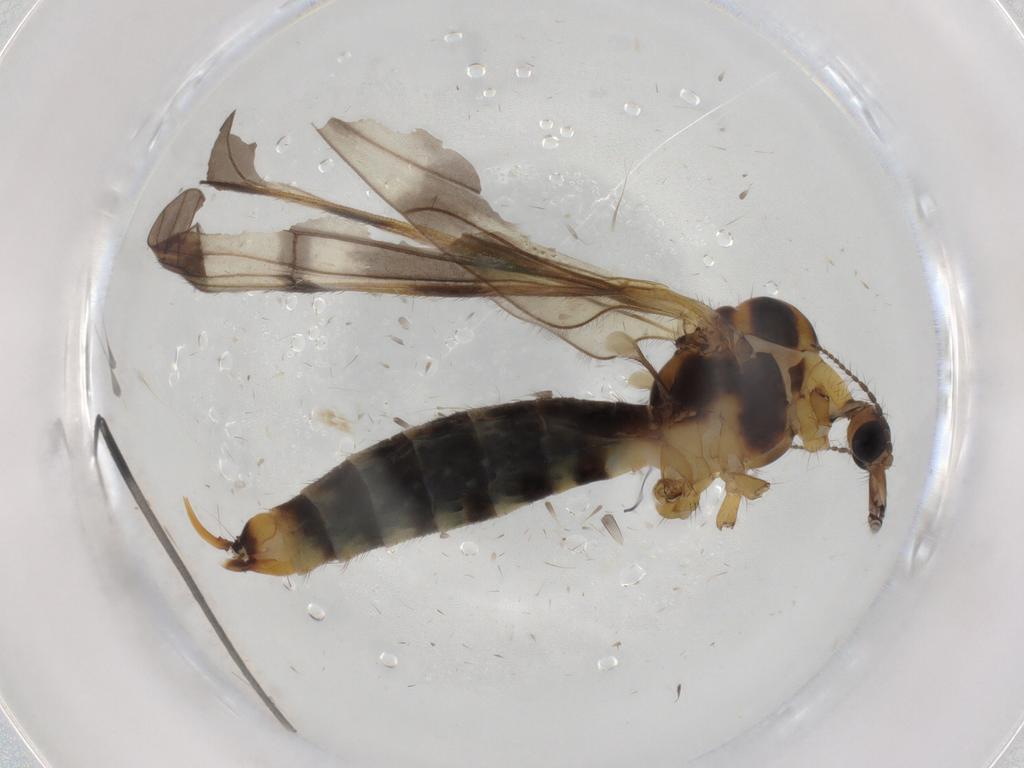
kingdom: Animalia
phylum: Arthropoda
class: Insecta
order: Diptera
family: Limoniidae
